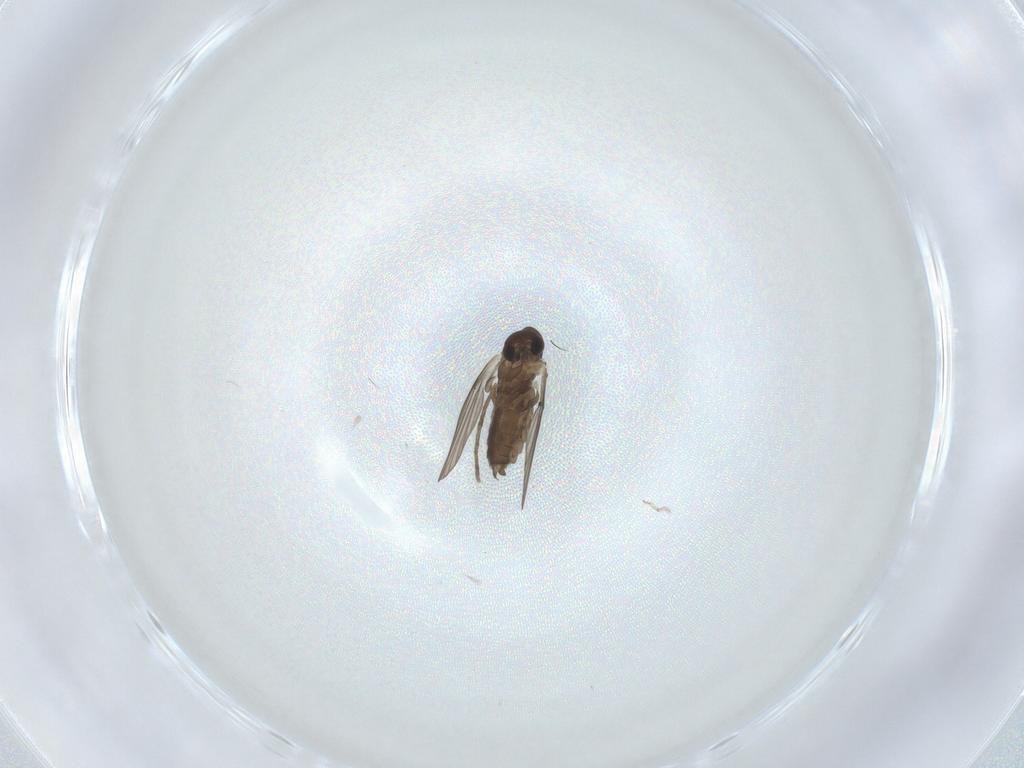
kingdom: Animalia
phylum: Arthropoda
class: Insecta
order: Diptera
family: Psychodidae
